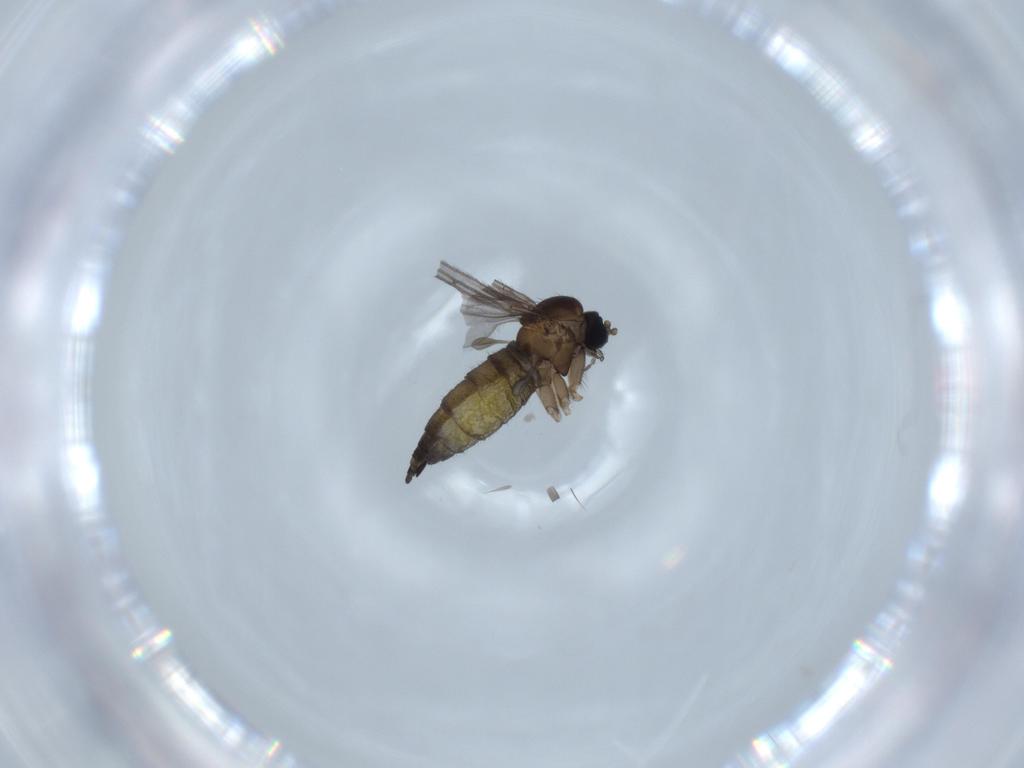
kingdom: Animalia
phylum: Arthropoda
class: Insecta
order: Diptera
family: Sciaridae
